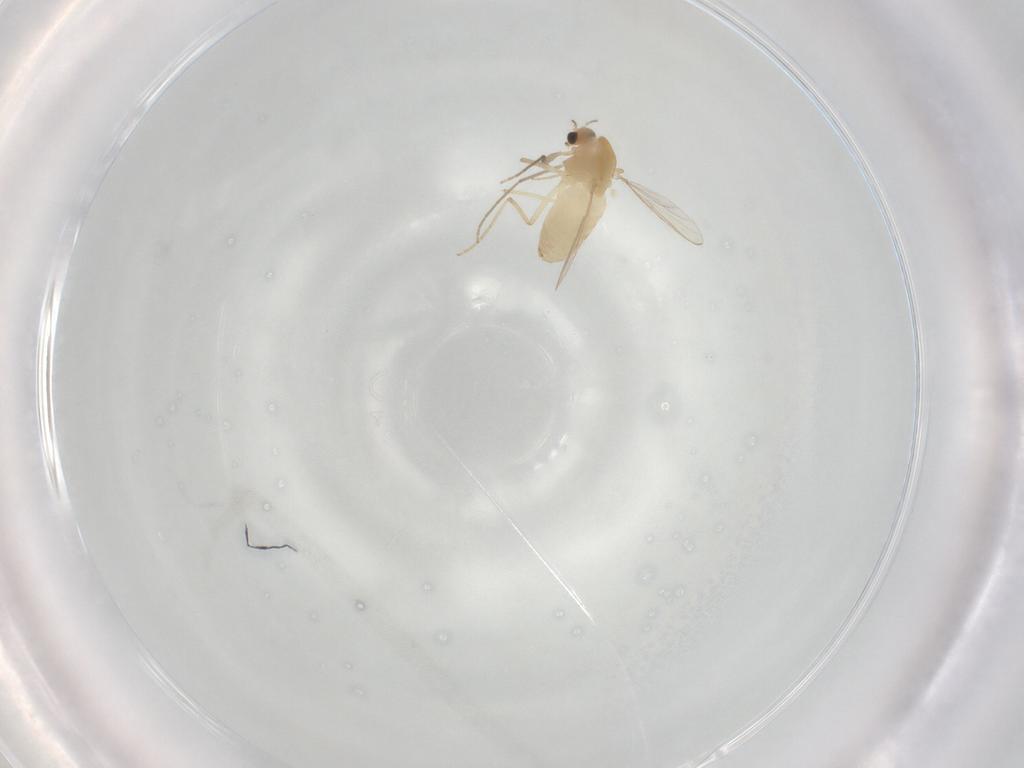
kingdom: Animalia
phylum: Arthropoda
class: Insecta
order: Diptera
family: Chironomidae
